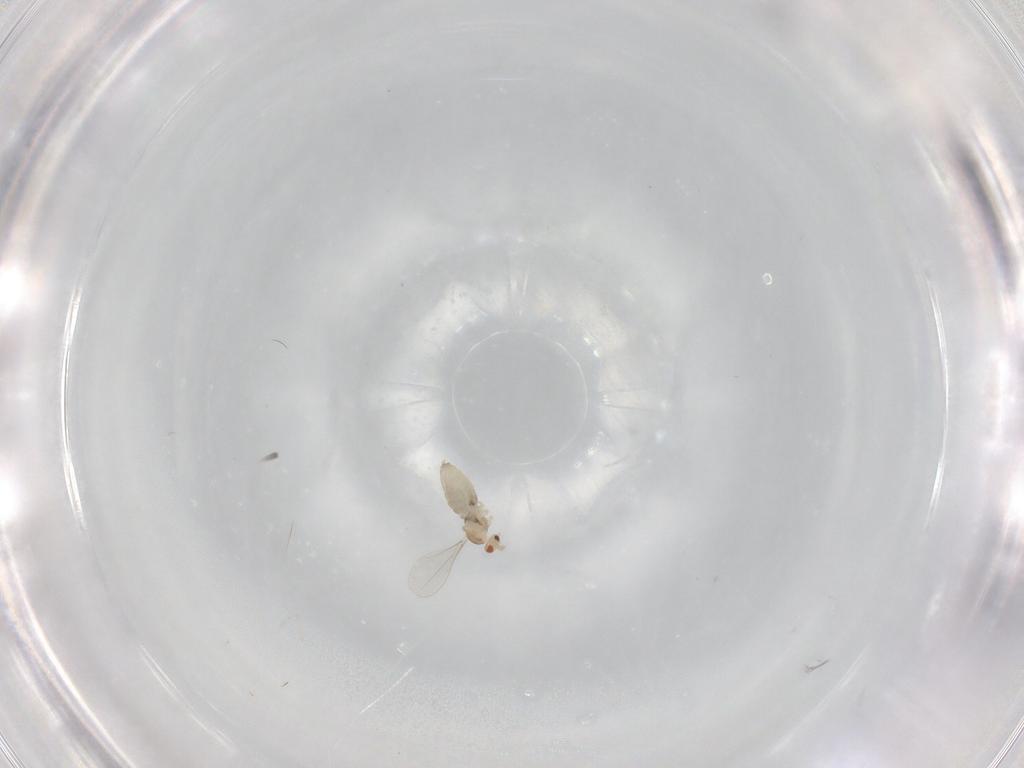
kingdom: Animalia
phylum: Arthropoda
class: Insecta
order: Diptera
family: Cecidomyiidae
